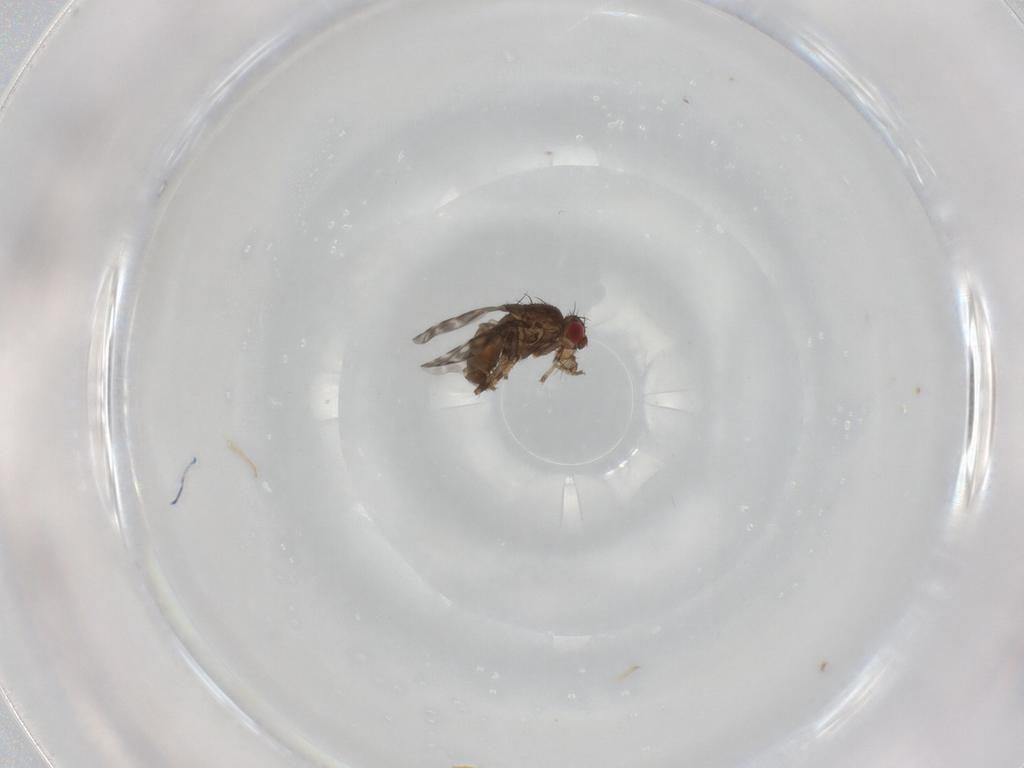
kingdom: Animalia
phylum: Arthropoda
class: Insecta
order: Diptera
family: Sphaeroceridae
